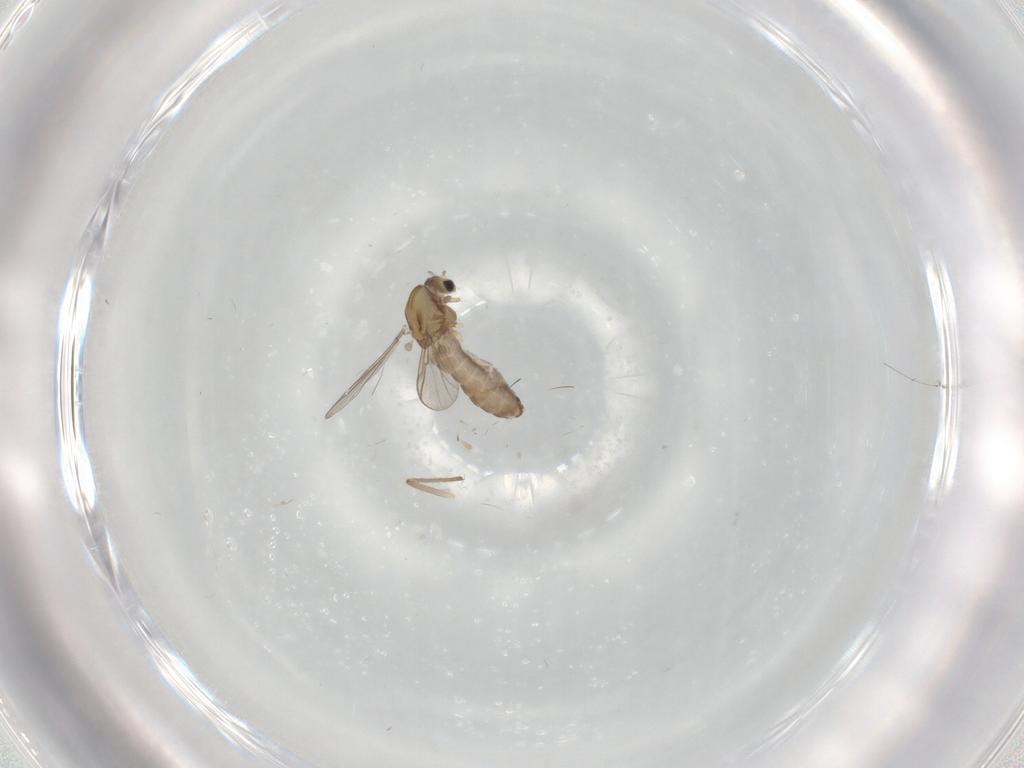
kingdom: Animalia
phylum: Arthropoda
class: Insecta
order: Diptera
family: Chironomidae
